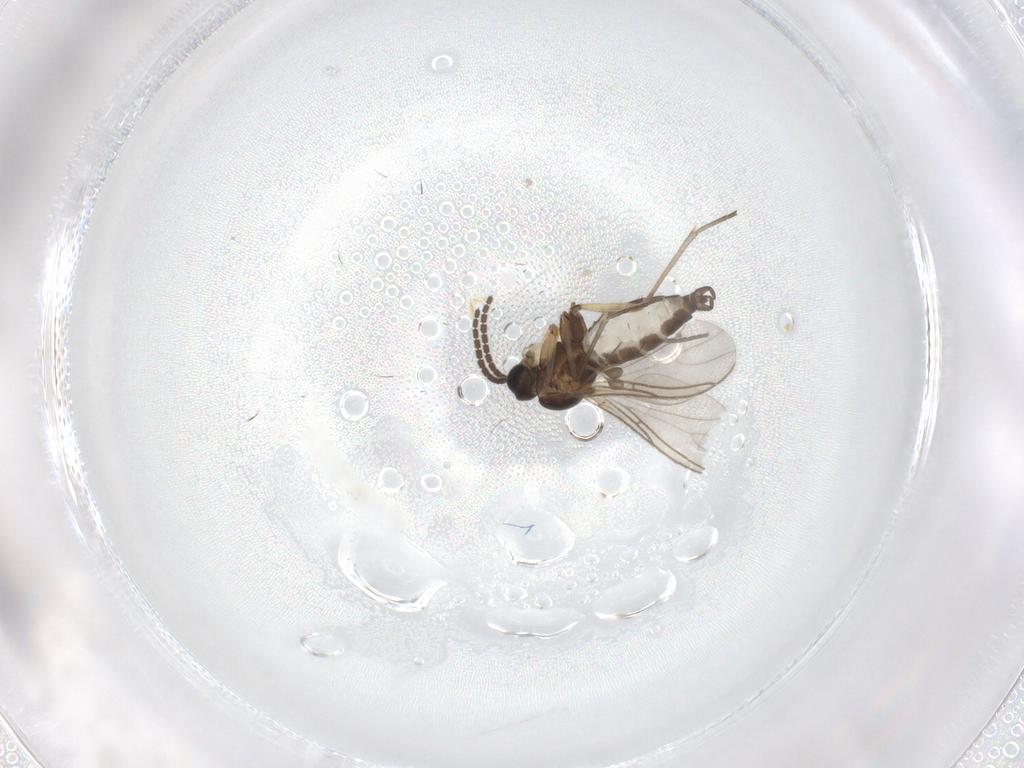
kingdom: Animalia
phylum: Arthropoda
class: Insecta
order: Diptera
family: Sciaridae
